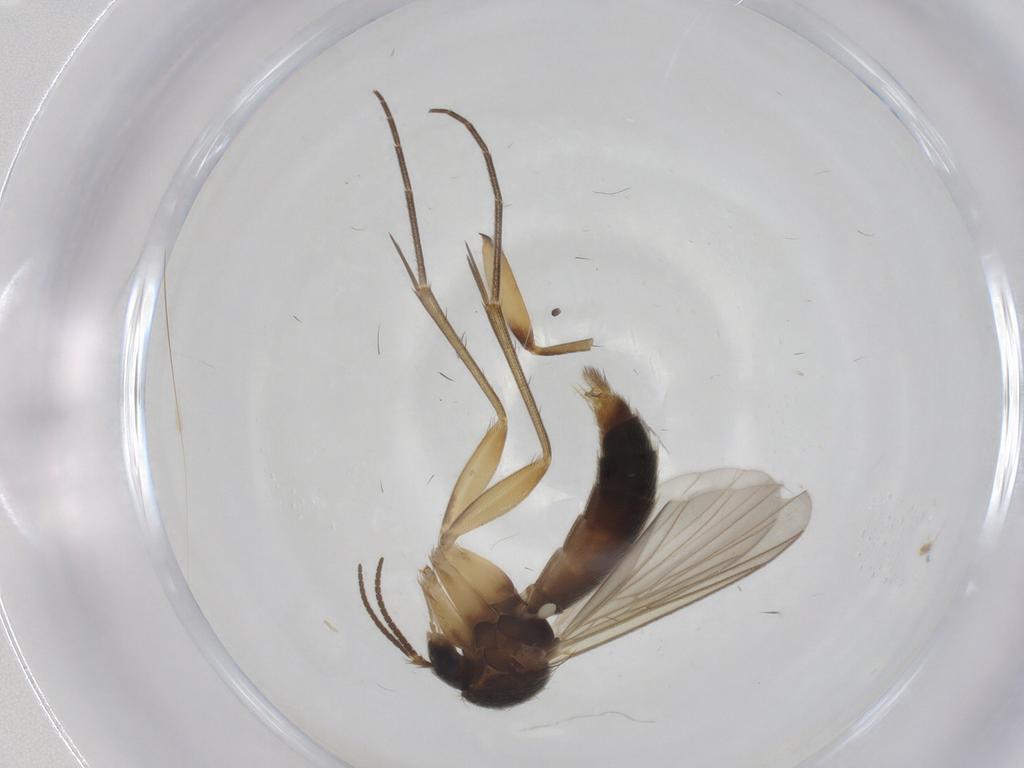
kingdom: Animalia
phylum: Arthropoda
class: Insecta
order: Diptera
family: Mycetophilidae
